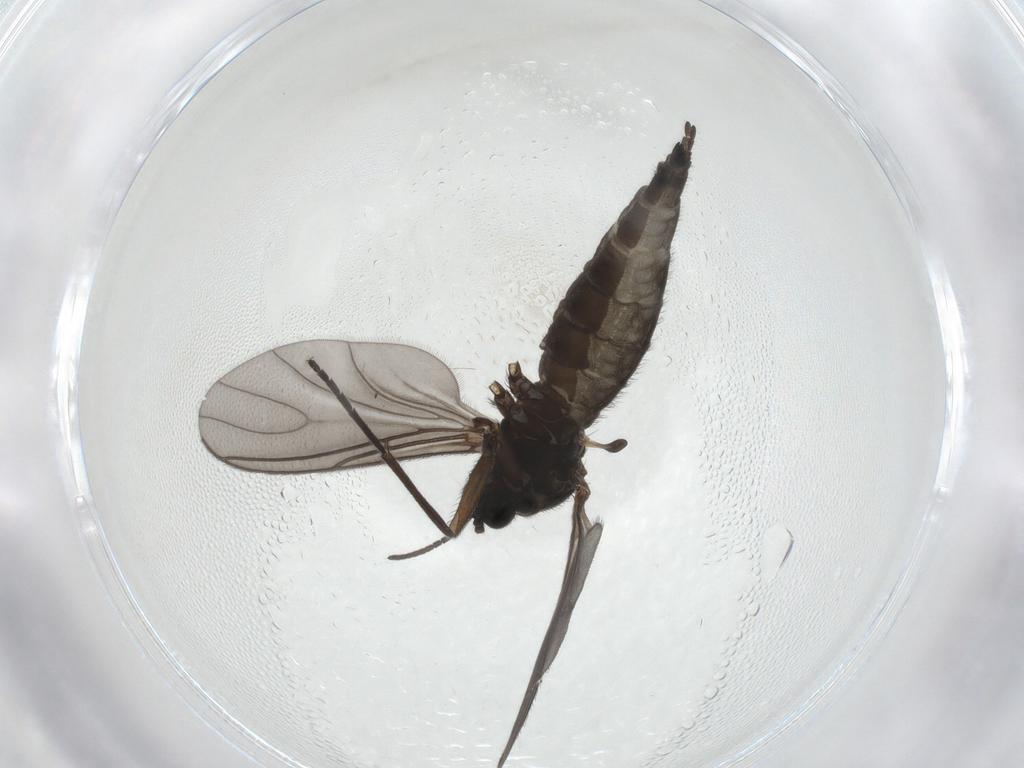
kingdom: Animalia
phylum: Arthropoda
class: Insecta
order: Diptera
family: Sciaridae
